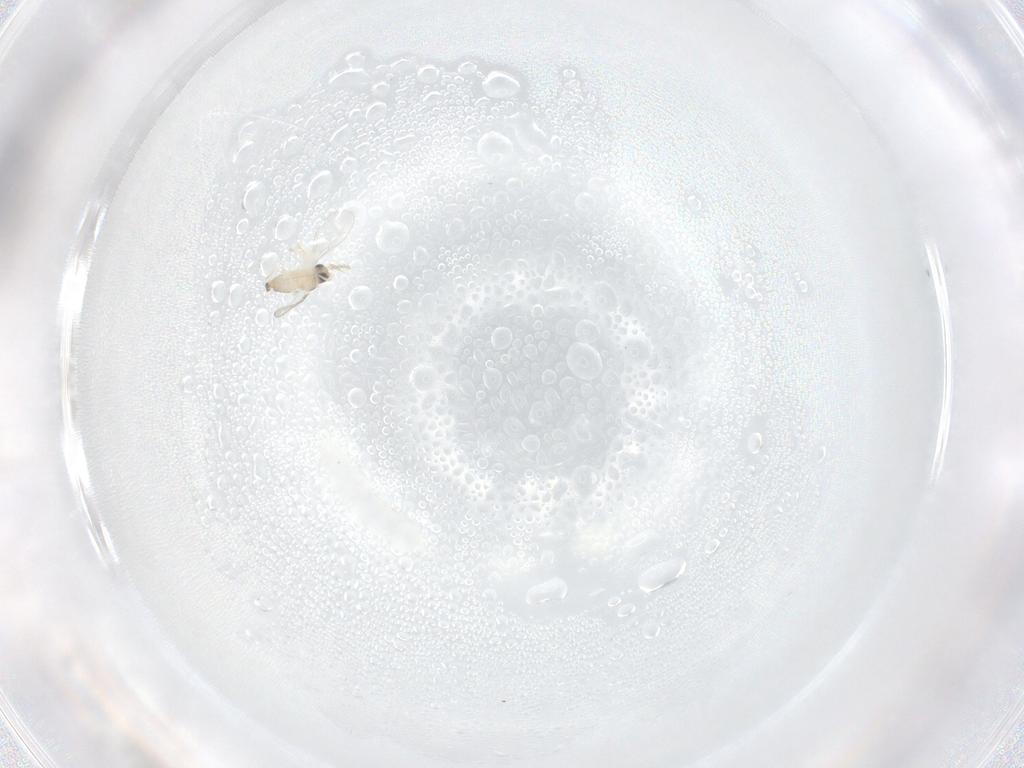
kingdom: Animalia
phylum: Arthropoda
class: Insecta
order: Diptera
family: Cecidomyiidae
